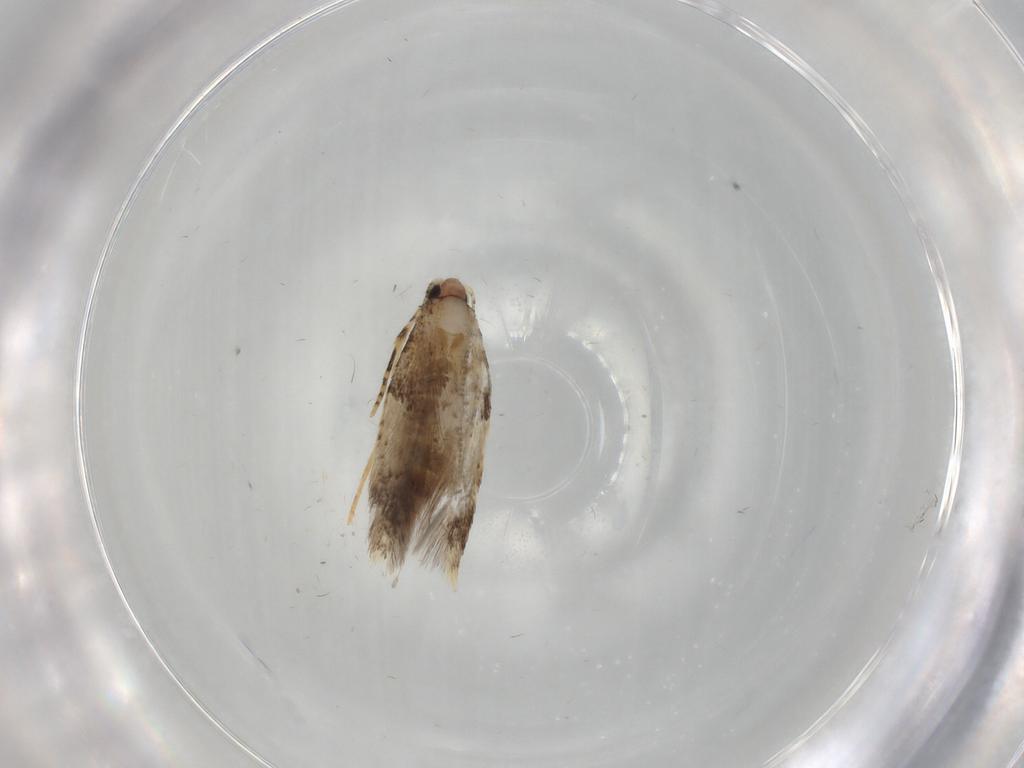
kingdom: Animalia
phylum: Arthropoda
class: Insecta
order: Lepidoptera
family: Tineidae
